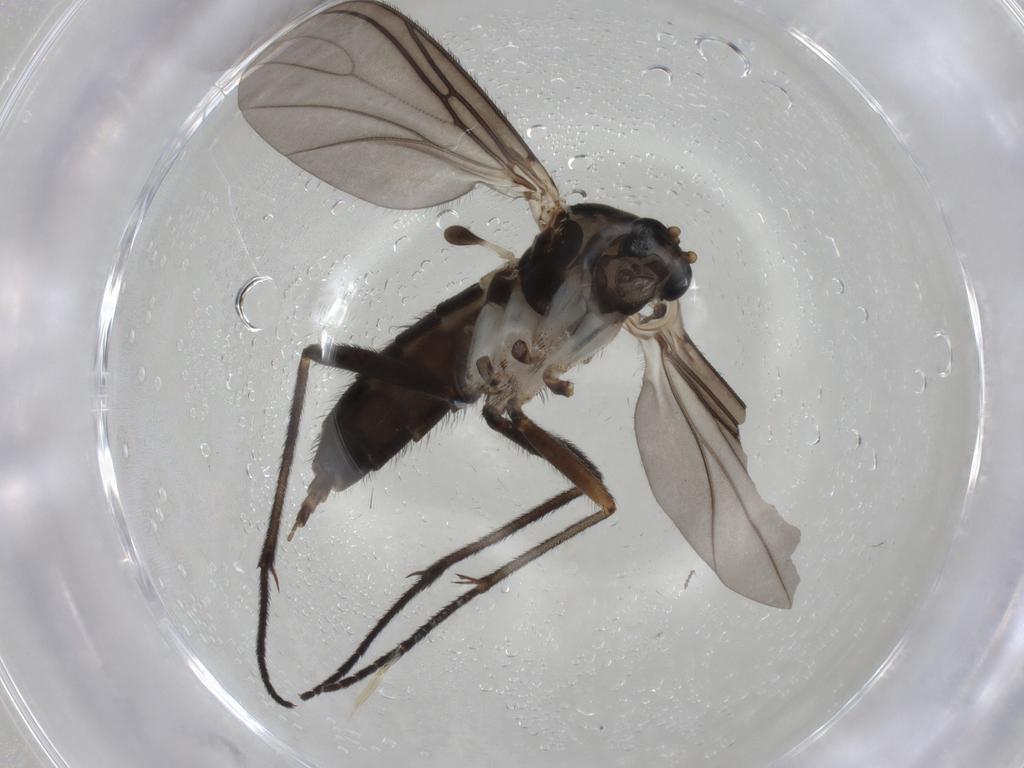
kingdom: Animalia
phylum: Arthropoda
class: Insecta
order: Diptera
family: Sciaridae
